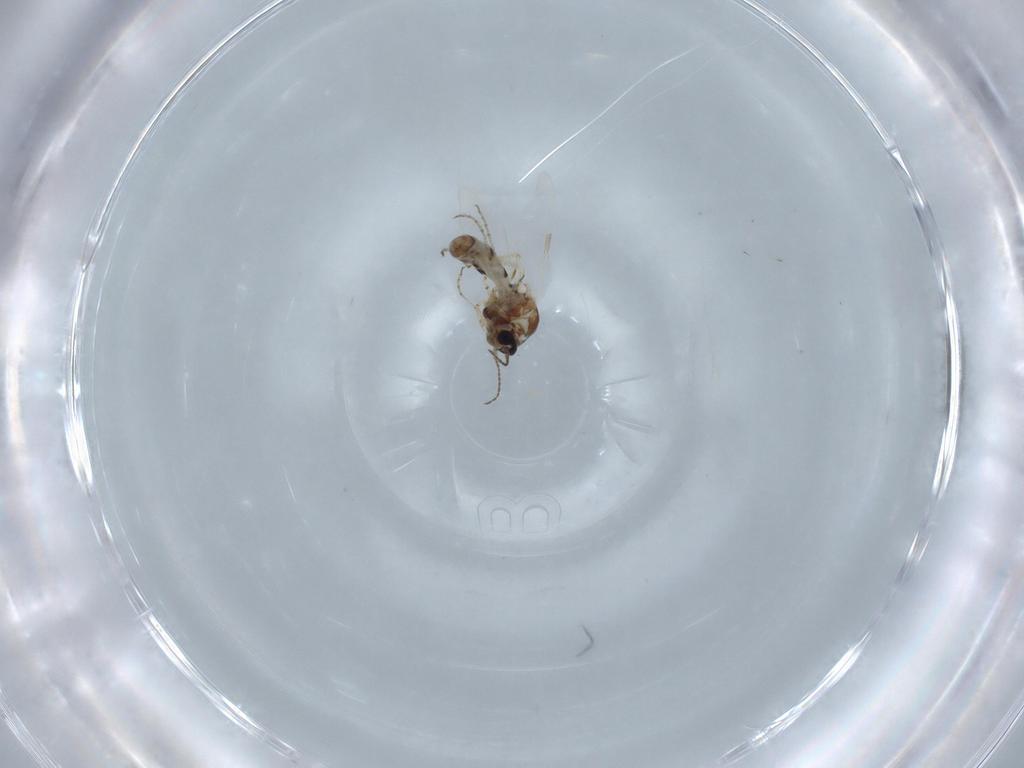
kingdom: Animalia
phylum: Arthropoda
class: Insecta
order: Diptera
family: Ceratopogonidae
